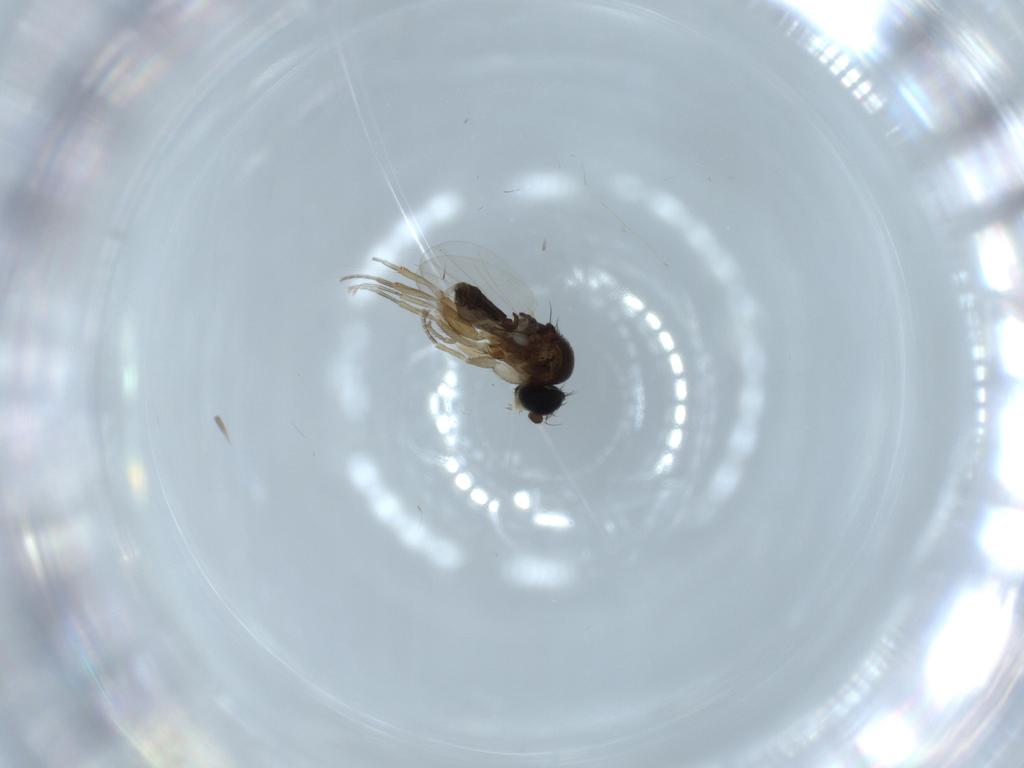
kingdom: Animalia
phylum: Arthropoda
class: Insecta
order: Diptera
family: Phoridae
